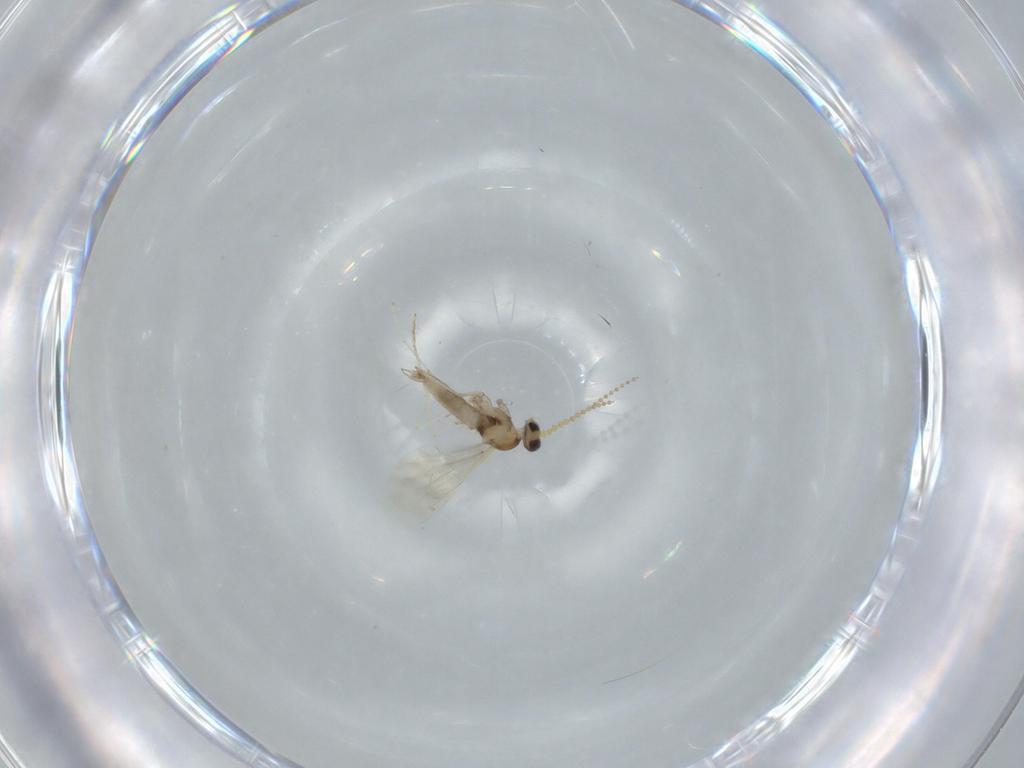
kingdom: Animalia
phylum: Arthropoda
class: Insecta
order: Diptera
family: Cecidomyiidae
